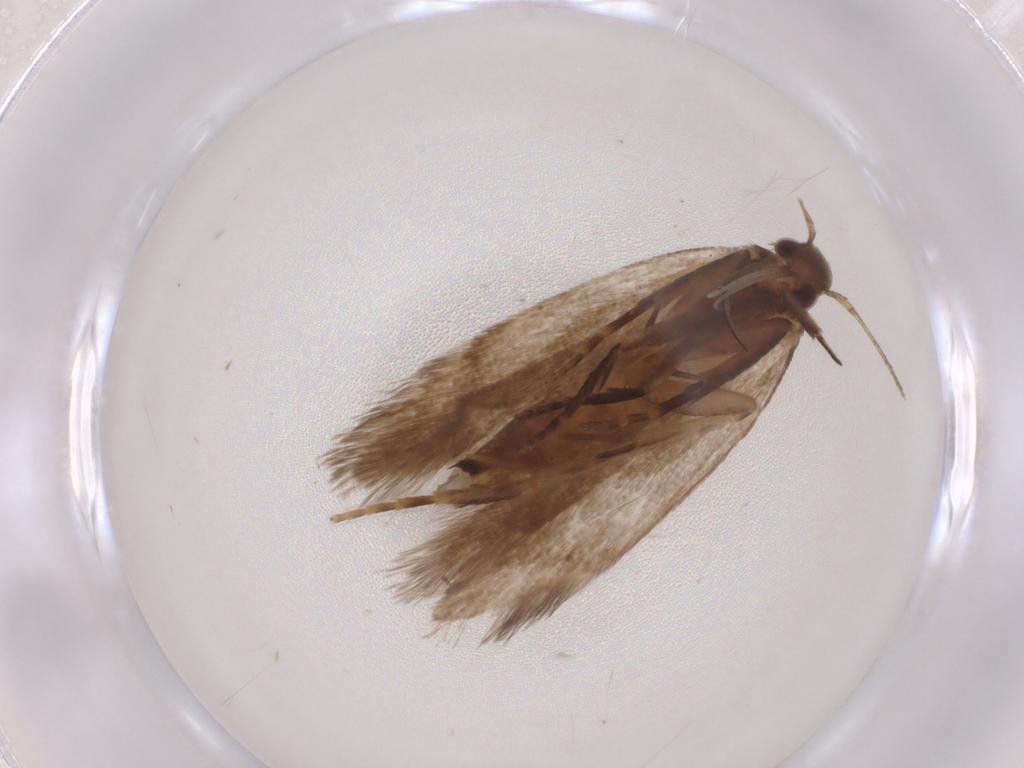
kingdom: Animalia
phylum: Arthropoda
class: Insecta
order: Lepidoptera
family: Gelechiidae
